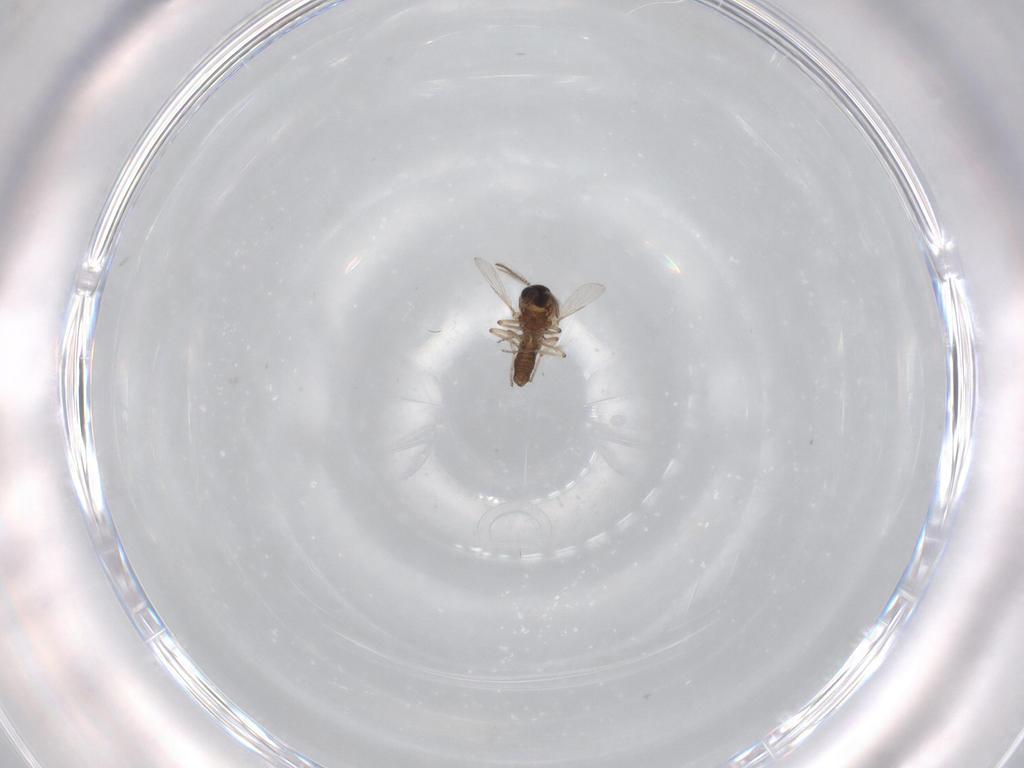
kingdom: Animalia
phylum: Arthropoda
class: Insecta
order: Diptera
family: Ceratopogonidae
